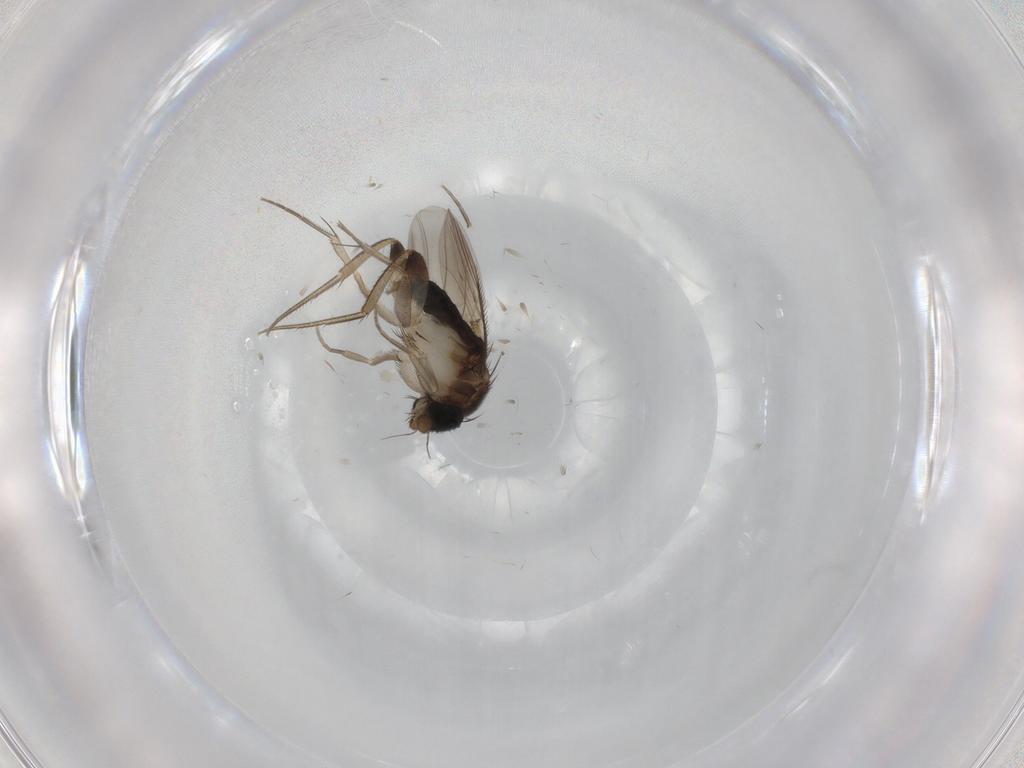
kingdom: Animalia
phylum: Arthropoda
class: Insecta
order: Diptera
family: Phoridae
